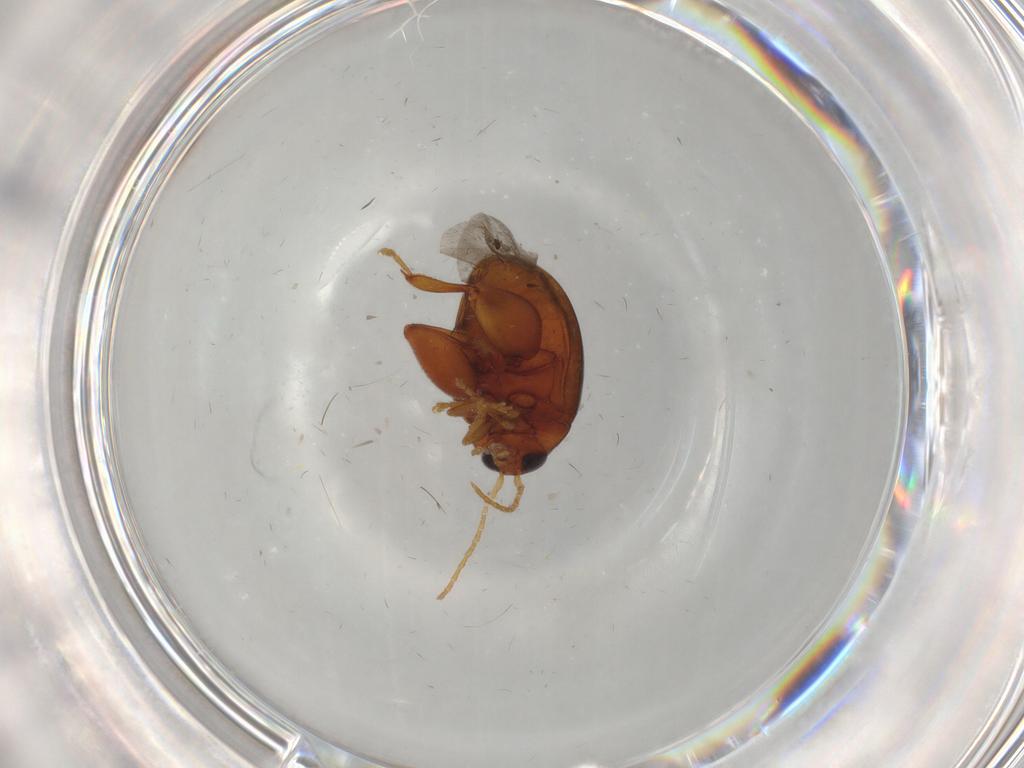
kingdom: Animalia
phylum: Arthropoda
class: Insecta
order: Coleoptera
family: Chrysomelidae
